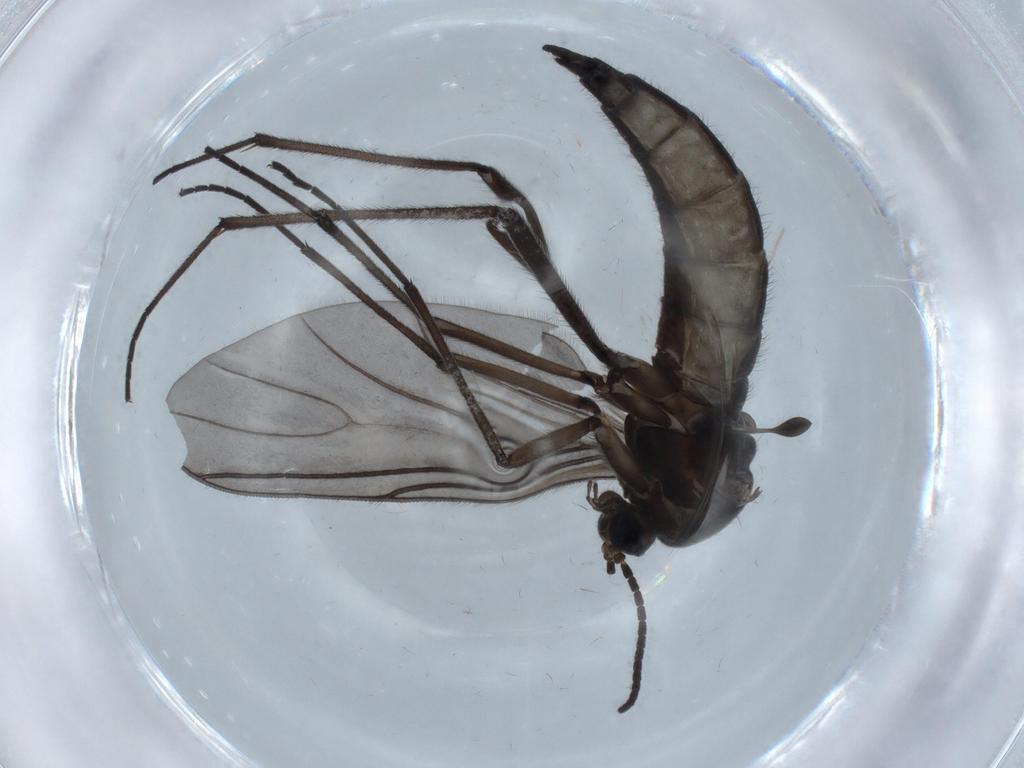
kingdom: Animalia
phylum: Arthropoda
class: Insecta
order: Diptera
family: Sciaridae
